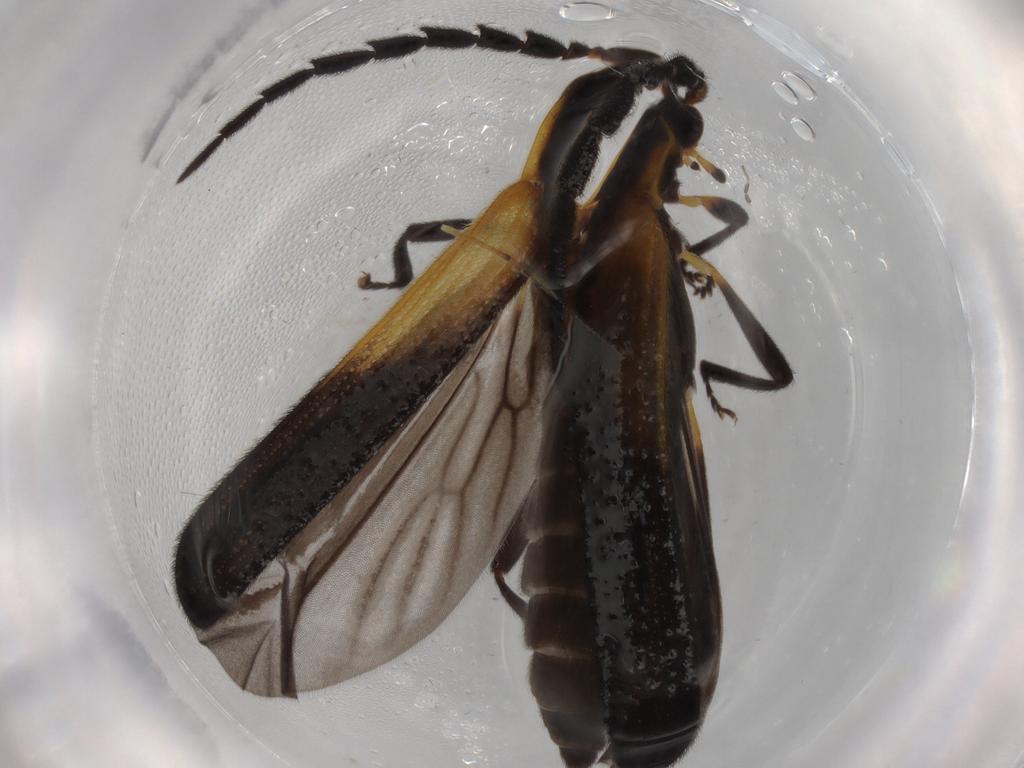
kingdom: Animalia
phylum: Arthropoda
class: Insecta
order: Coleoptera
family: Lycidae
